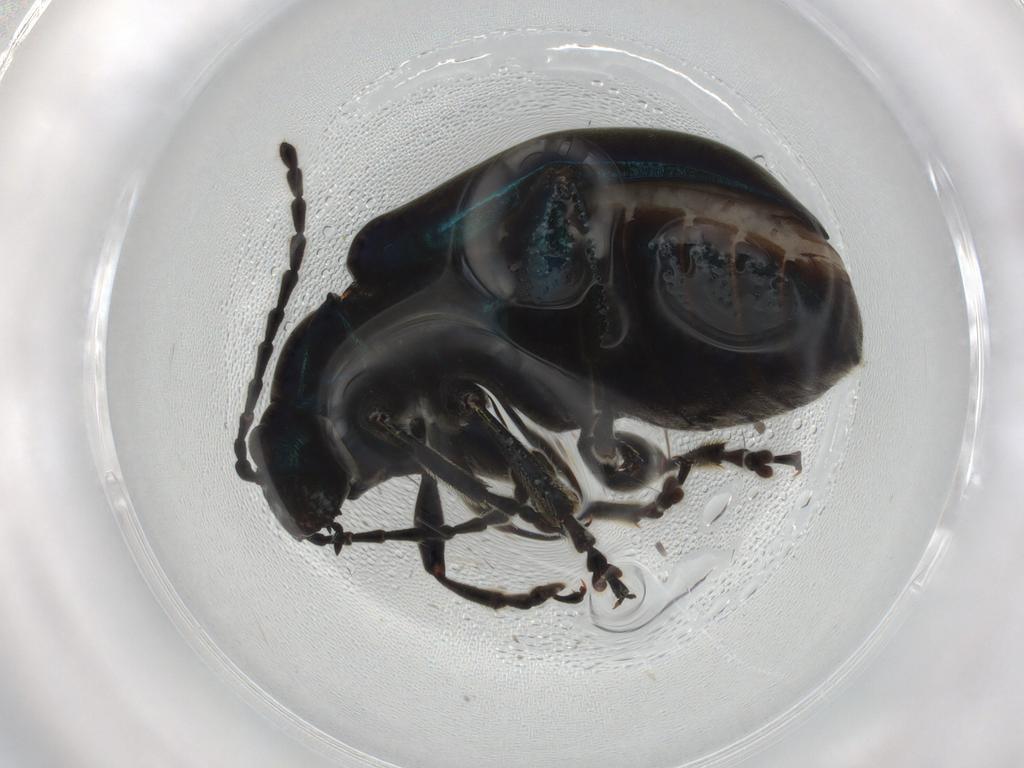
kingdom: Animalia
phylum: Arthropoda
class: Insecta
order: Coleoptera
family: Chrysomelidae
